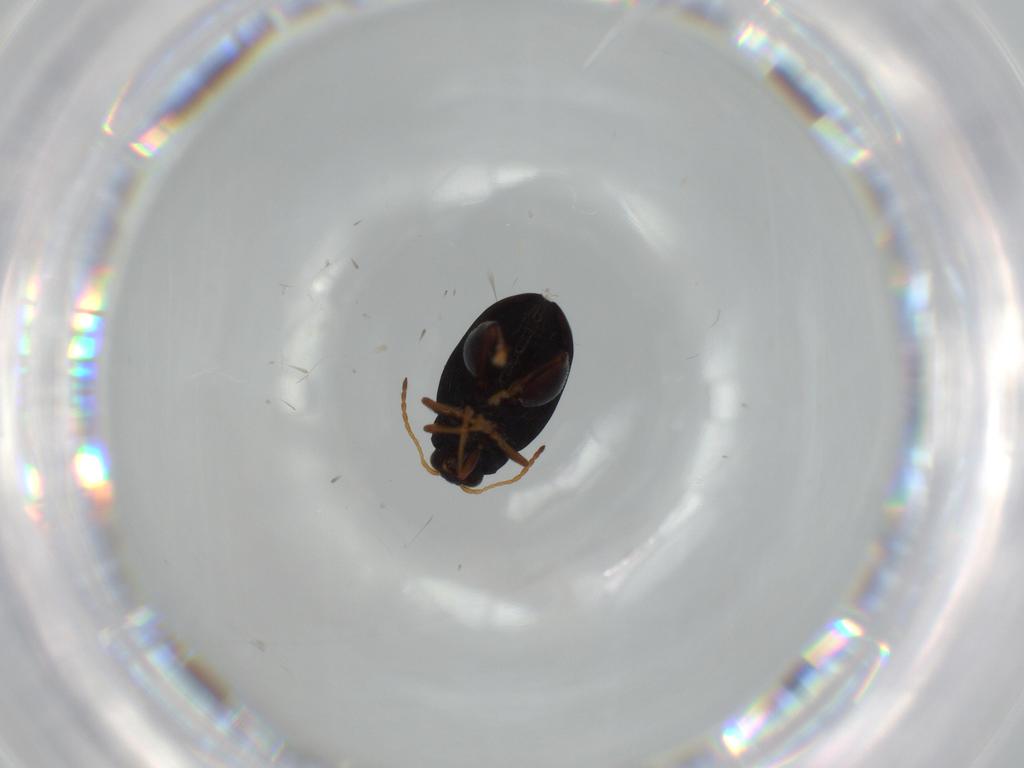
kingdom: Animalia
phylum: Arthropoda
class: Insecta
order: Coleoptera
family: Chrysomelidae
